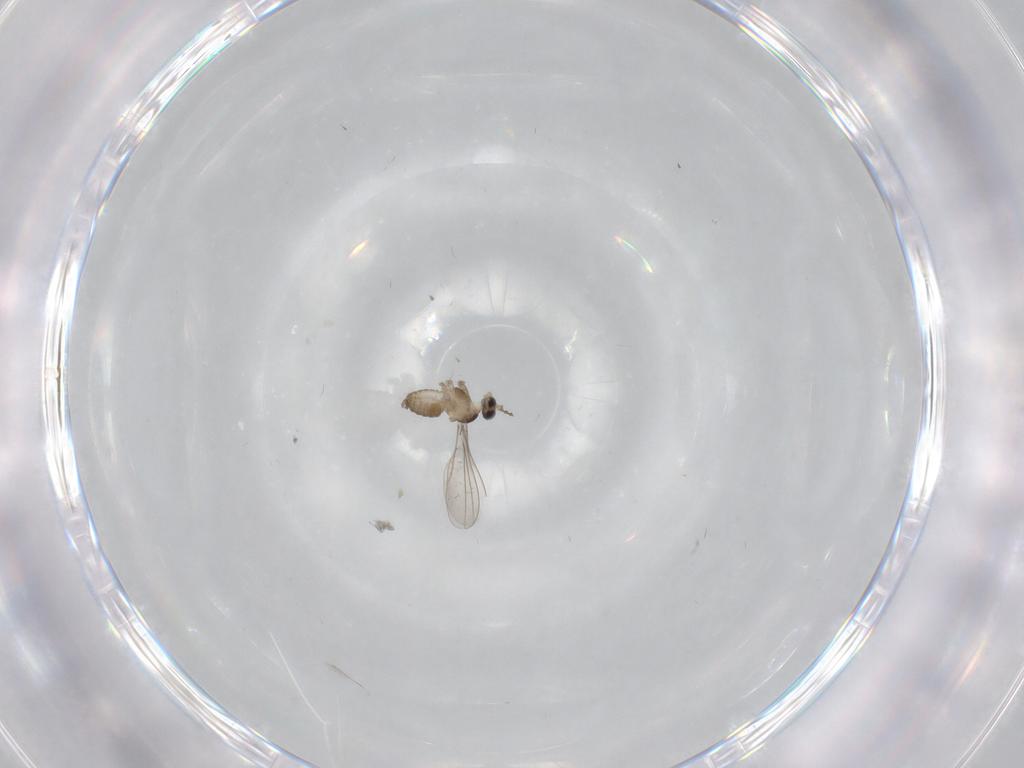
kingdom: Animalia
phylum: Arthropoda
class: Insecta
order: Diptera
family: Cecidomyiidae
